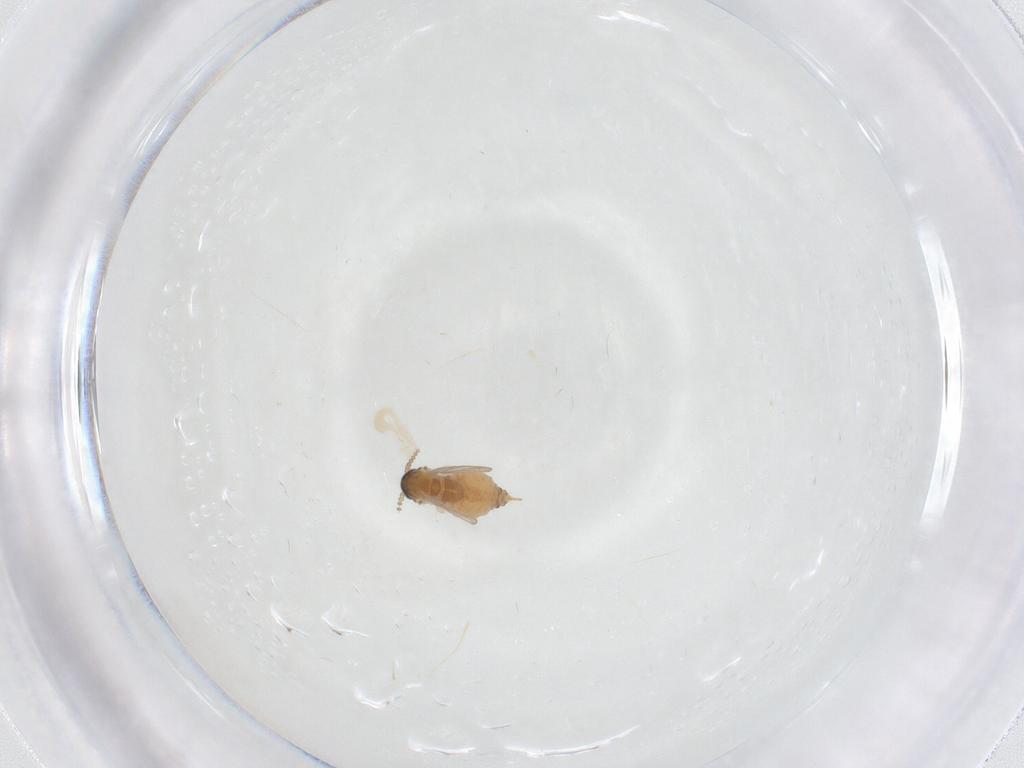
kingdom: Animalia
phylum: Arthropoda
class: Insecta
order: Diptera
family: Psychodidae
